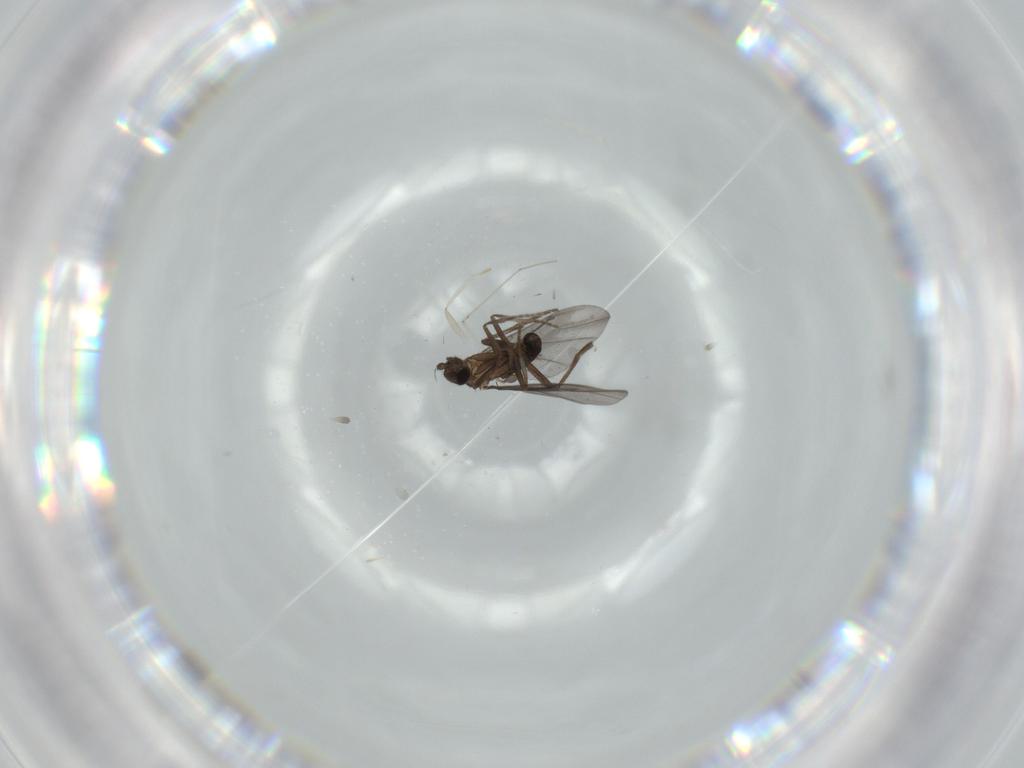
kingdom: Animalia
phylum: Arthropoda
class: Insecta
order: Diptera
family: Phoridae
